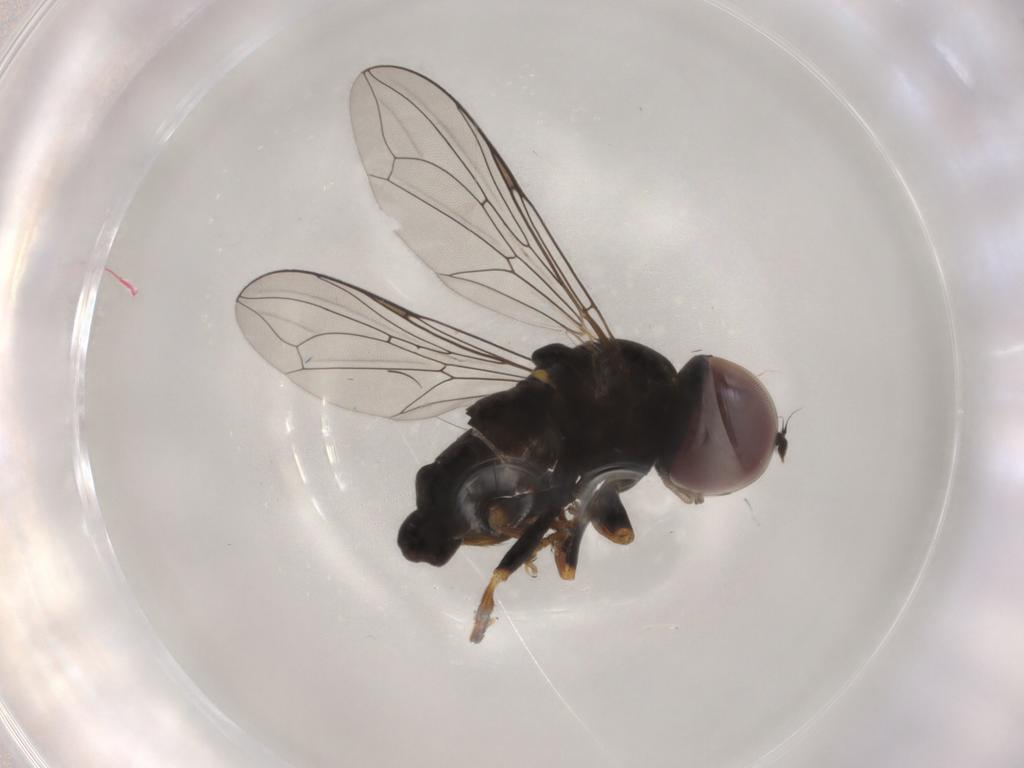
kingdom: Animalia
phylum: Arthropoda
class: Insecta
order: Diptera
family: Pipunculidae
